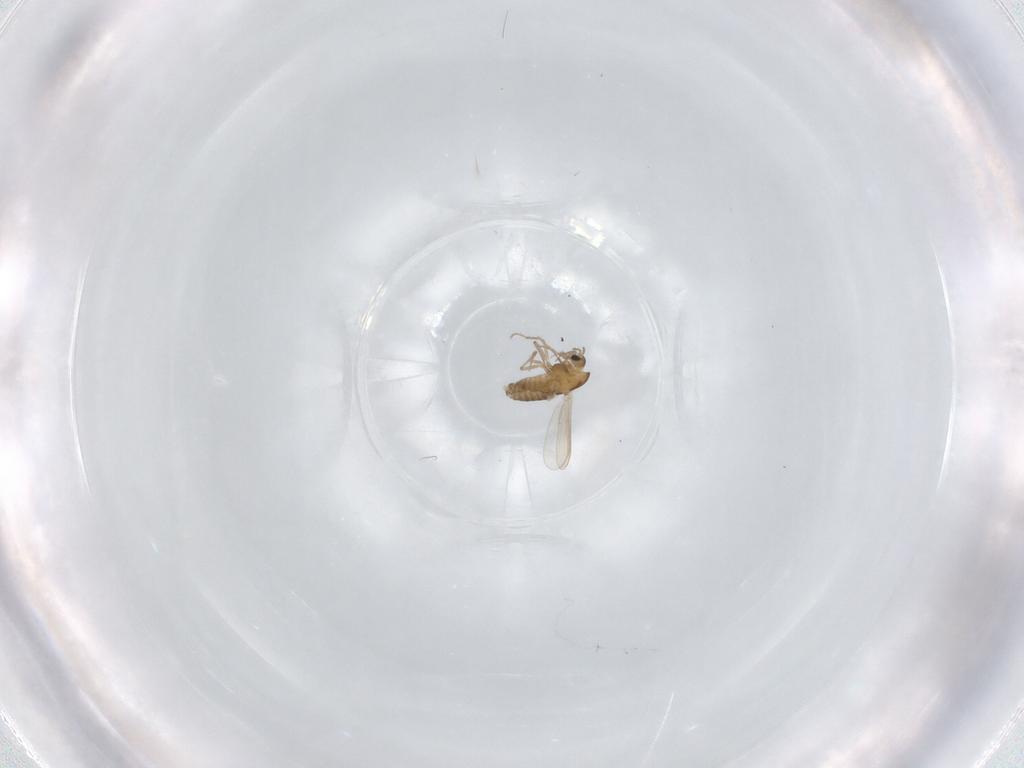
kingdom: Animalia
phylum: Arthropoda
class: Insecta
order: Diptera
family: Chironomidae
